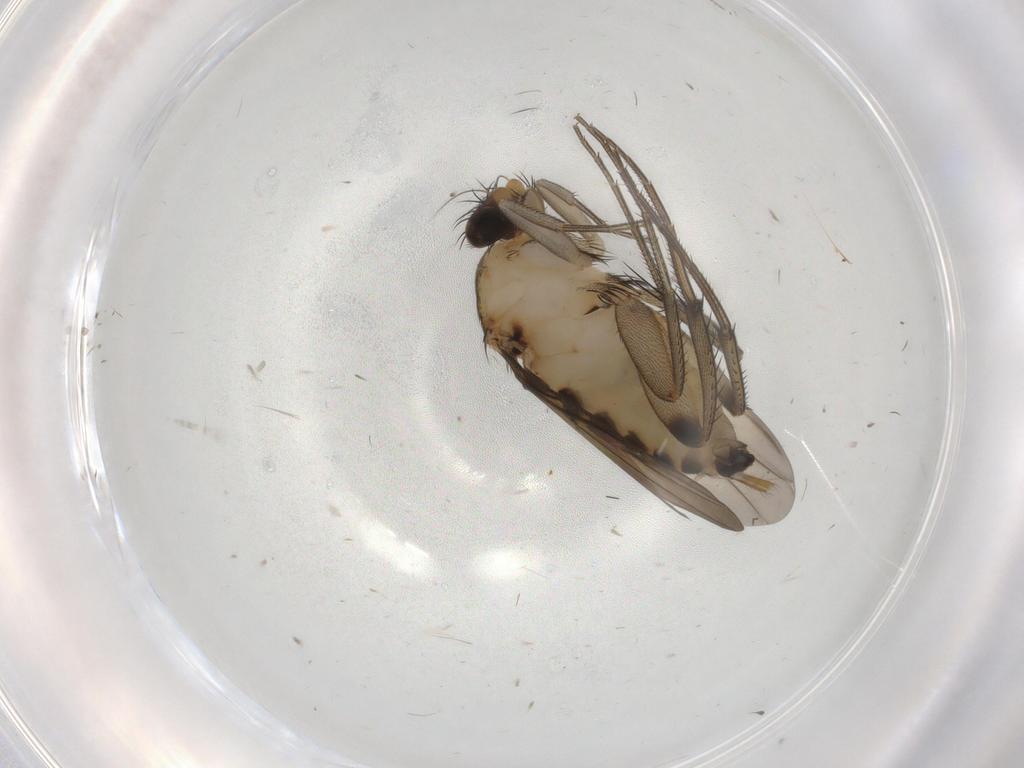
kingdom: Animalia
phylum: Arthropoda
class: Insecta
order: Diptera
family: Phoridae
